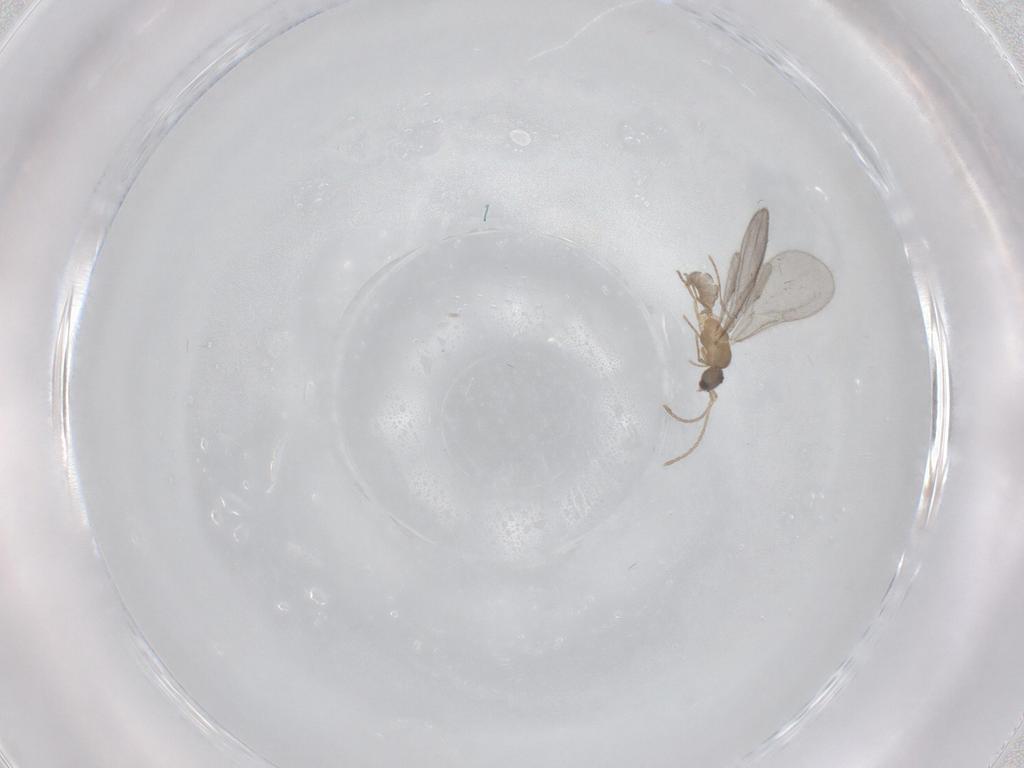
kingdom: Animalia
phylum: Arthropoda
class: Insecta
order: Hymenoptera
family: Formicidae
